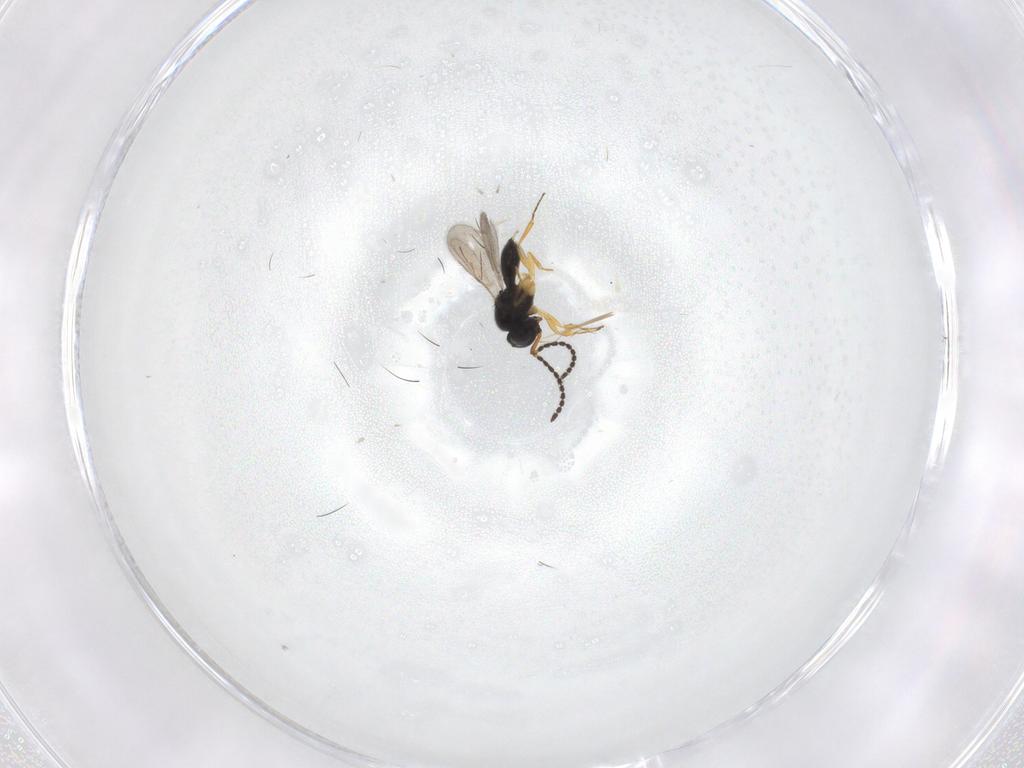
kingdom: Animalia
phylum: Arthropoda
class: Insecta
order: Hymenoptera
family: Scelionidae
